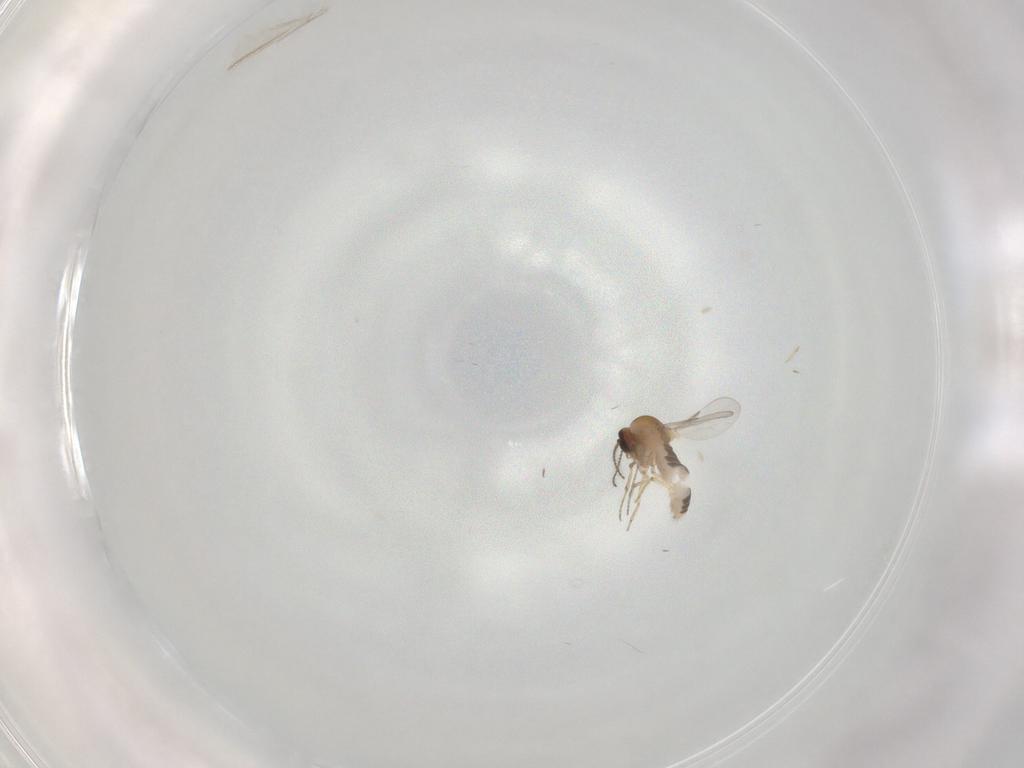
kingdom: Animalia
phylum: Arthropoda
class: Insecta
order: Diptera
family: Ceratopogonidae
